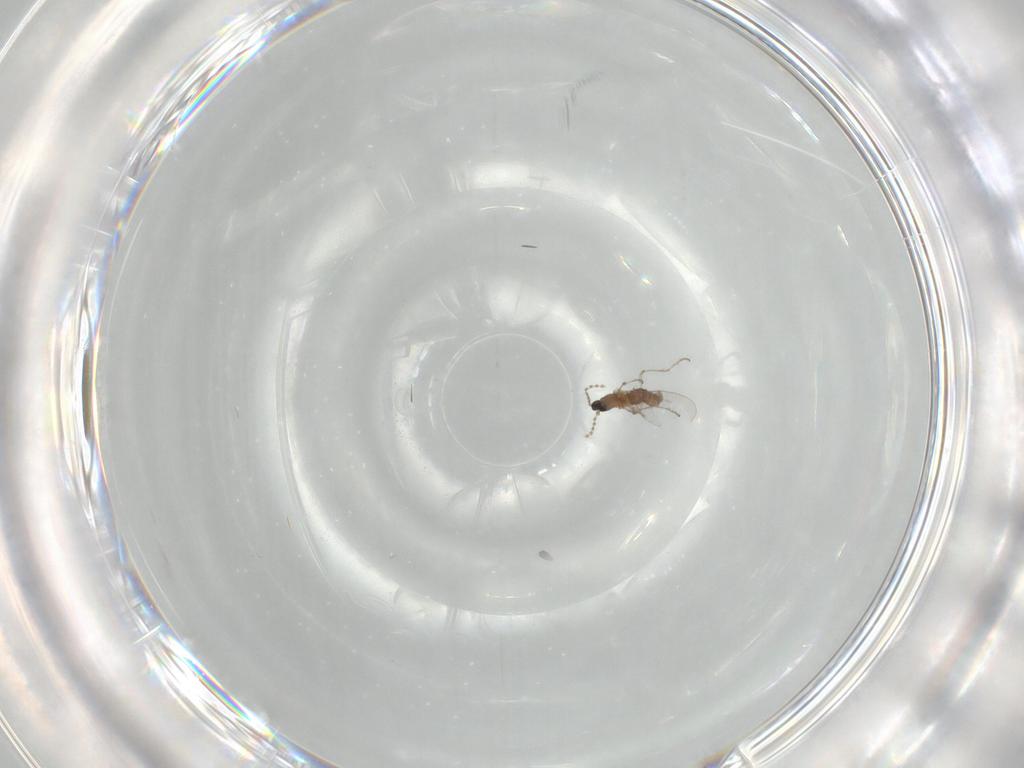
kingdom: Animalia
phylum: Arthropoda
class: Insecta
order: Diptera
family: Cecidomyiidae
